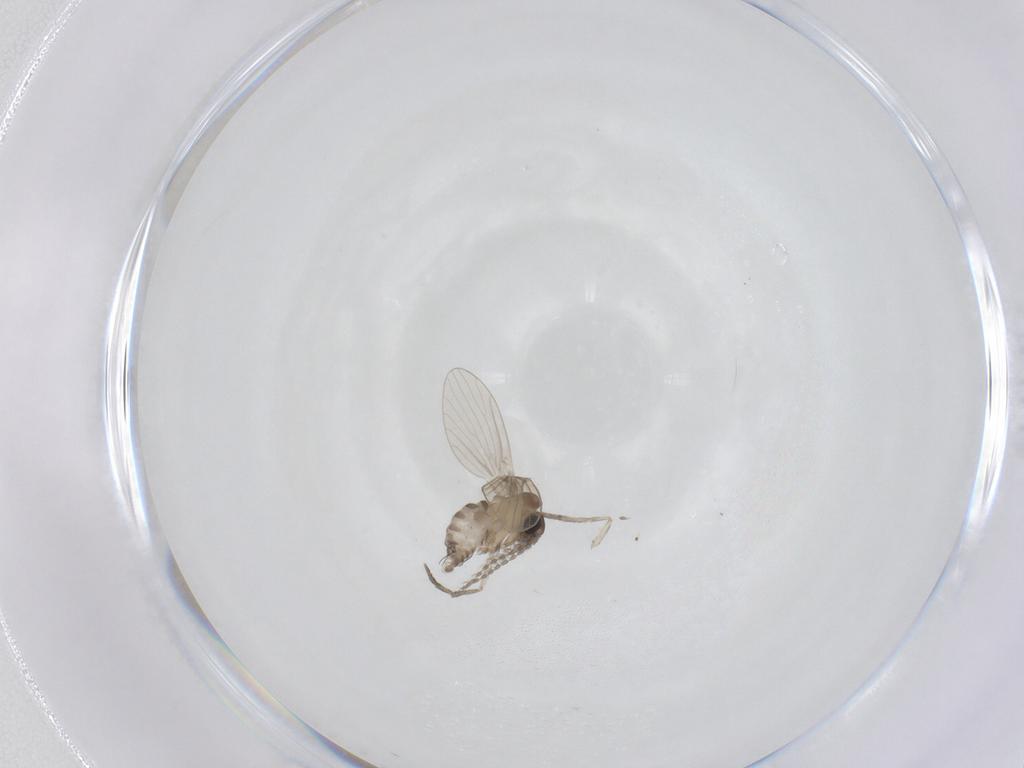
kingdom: Animalia
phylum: Arthropoda
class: Insecta
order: Diptera
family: Psychodidae
